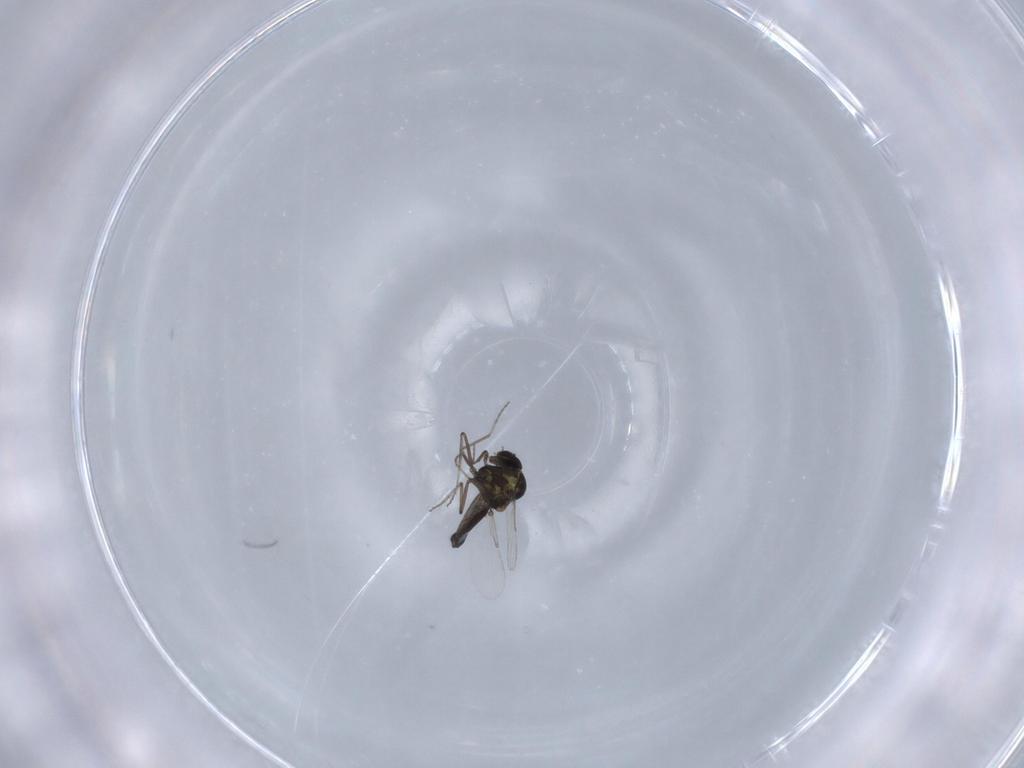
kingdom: Animalia
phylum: Arthropoda
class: Insecta
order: Diptera
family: Ceratopogonidae
